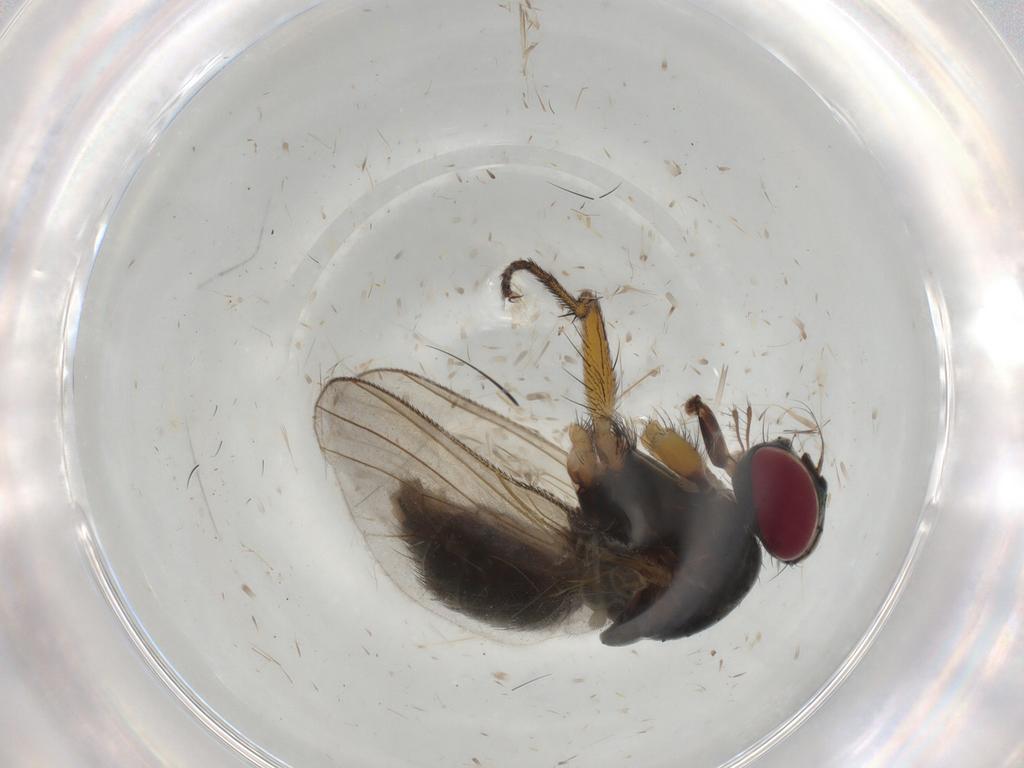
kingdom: Animalia
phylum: Arthropoda
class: Insecta
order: Diptera
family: Muscidae
